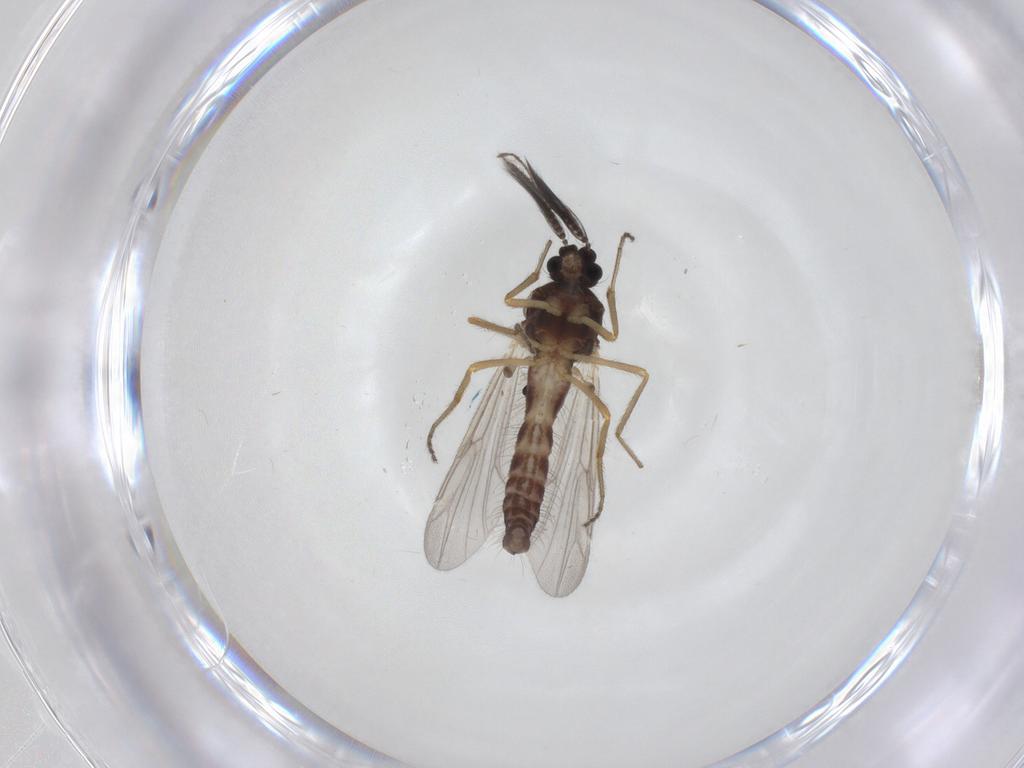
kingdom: Animalia
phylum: Arthropoda
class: Insecta
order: Diptera
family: Ceratopogonidae
